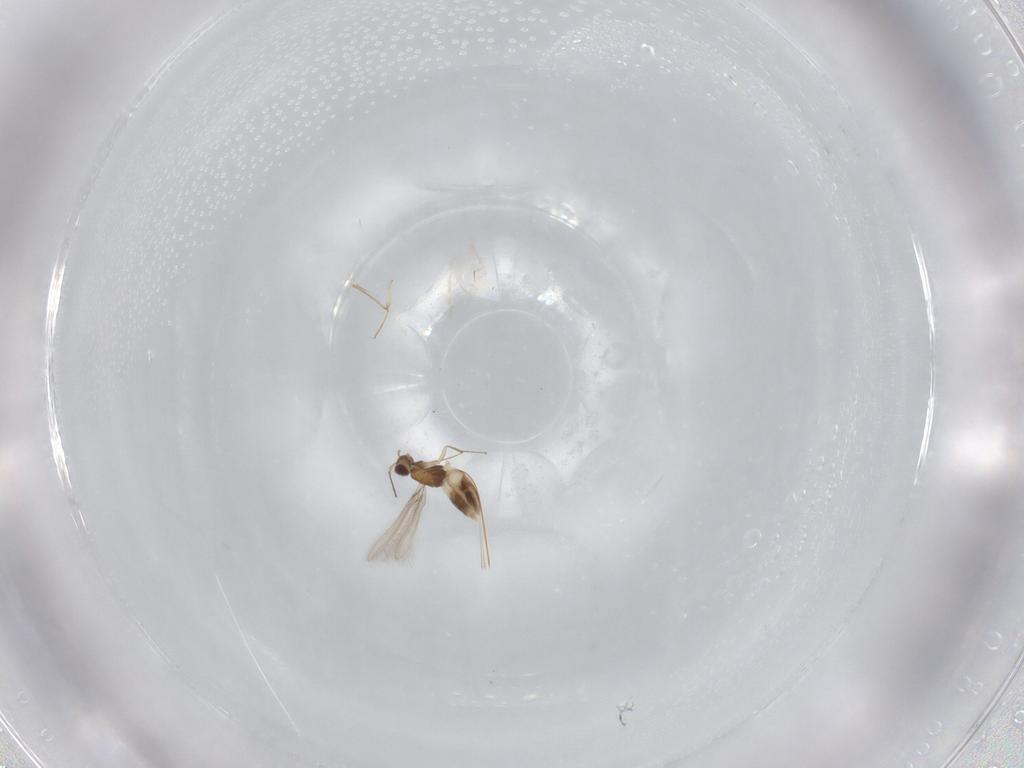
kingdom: Animalia
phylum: Arthropoda
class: Insecta
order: Hymenoptera
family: Mymaridae
